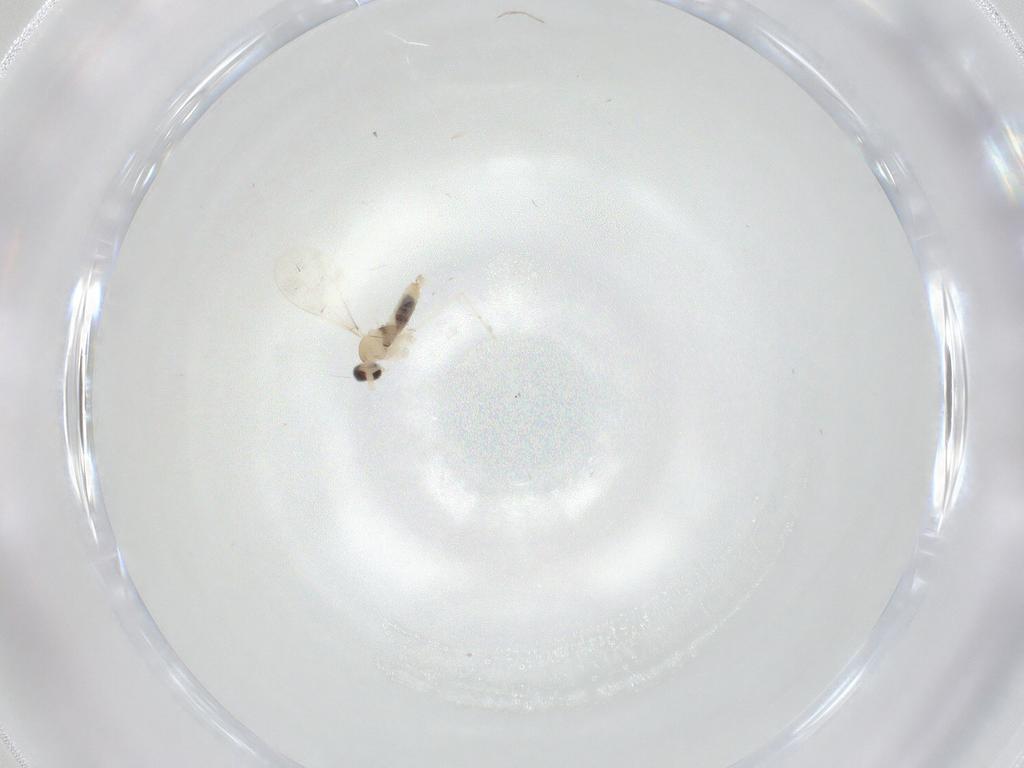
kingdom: Animalia
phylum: Arthropoda
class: Insecta
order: Diptera
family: Cecidomyiidae
